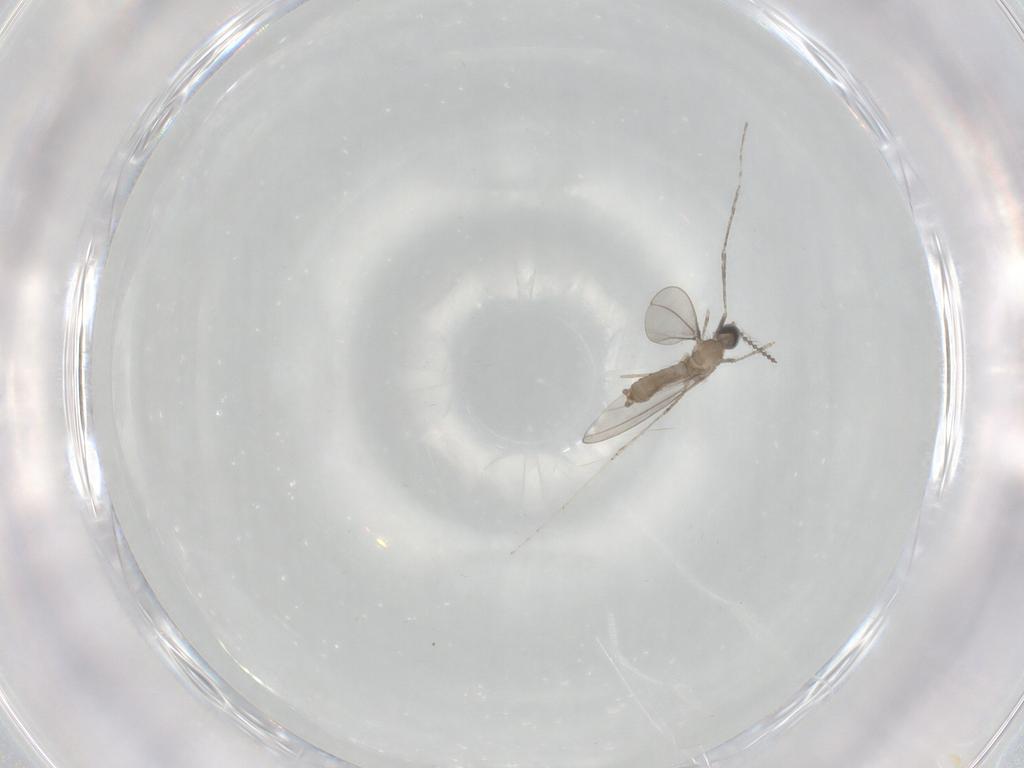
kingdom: Animalia
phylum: Arthropoda
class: Insecta
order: Diptera
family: Cecidomyiidae
